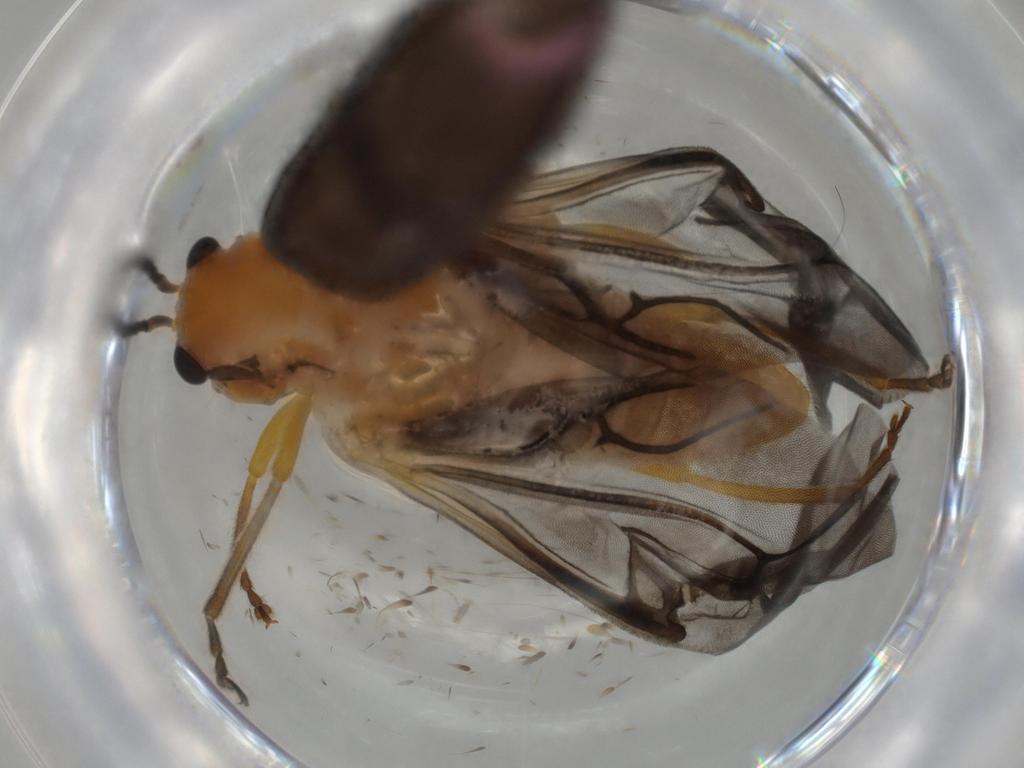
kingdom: Animalia
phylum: Arthropoda
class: Insecta
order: Coleoptera
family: Chrysomelidae
